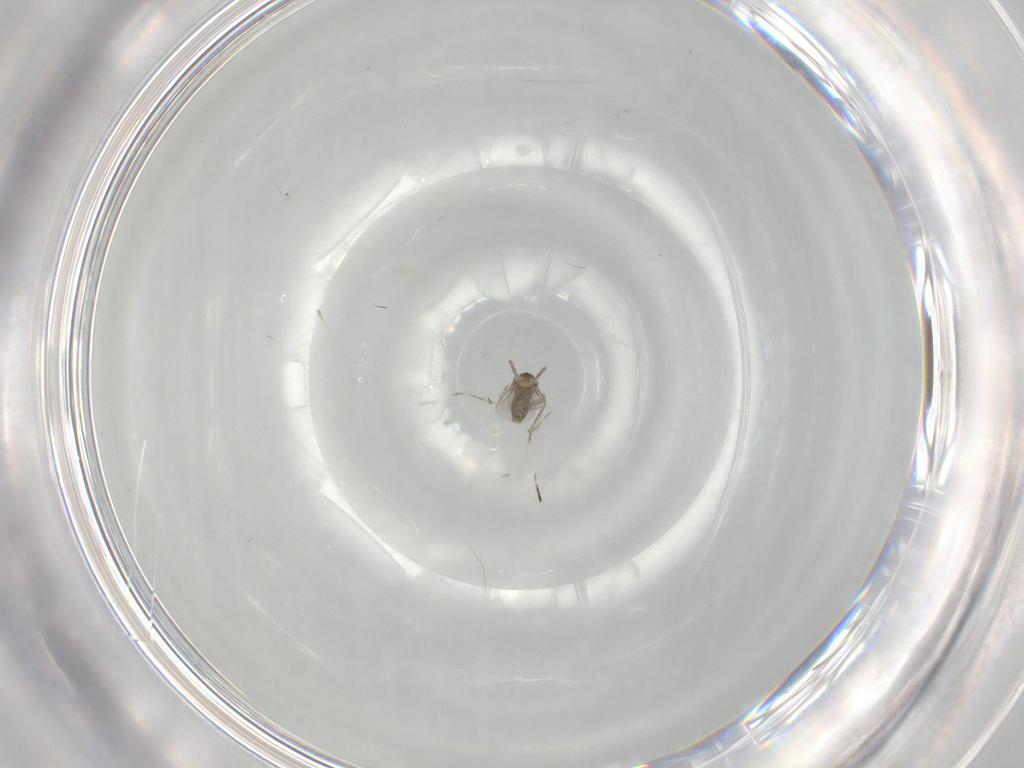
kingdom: Animalia
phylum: Arthropoda
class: Insecta
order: Diptera
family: Cecidomyiidae
